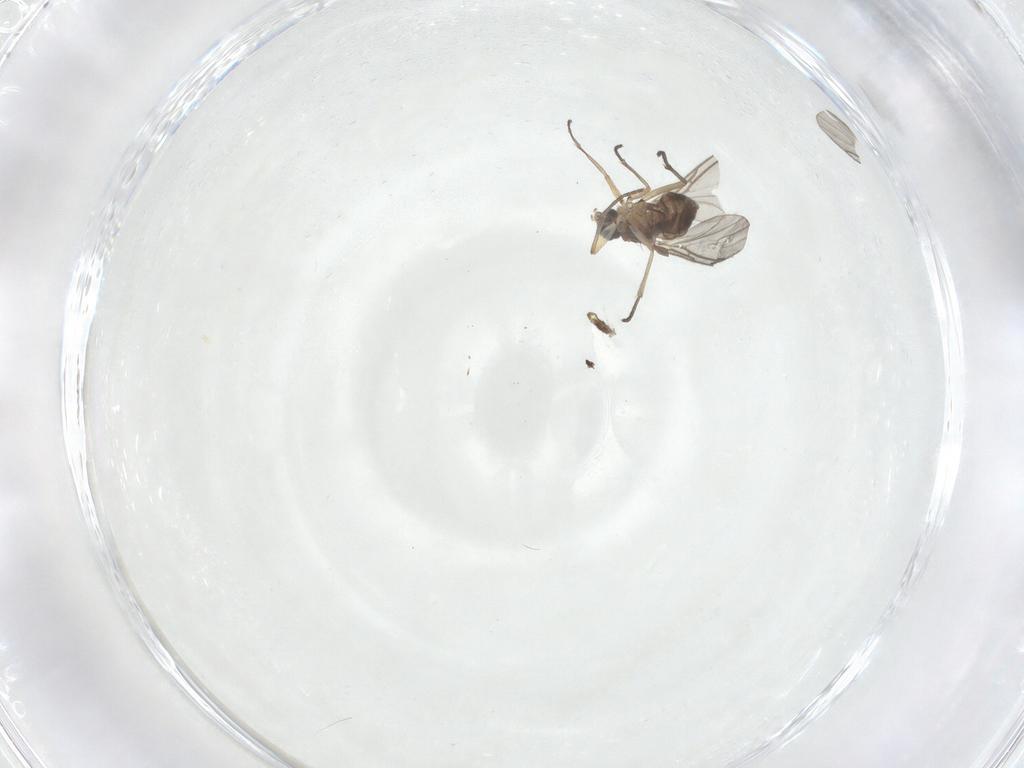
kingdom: Animalia
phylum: Arthropoda
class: Insecta
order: Diptera
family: Sciaridae
